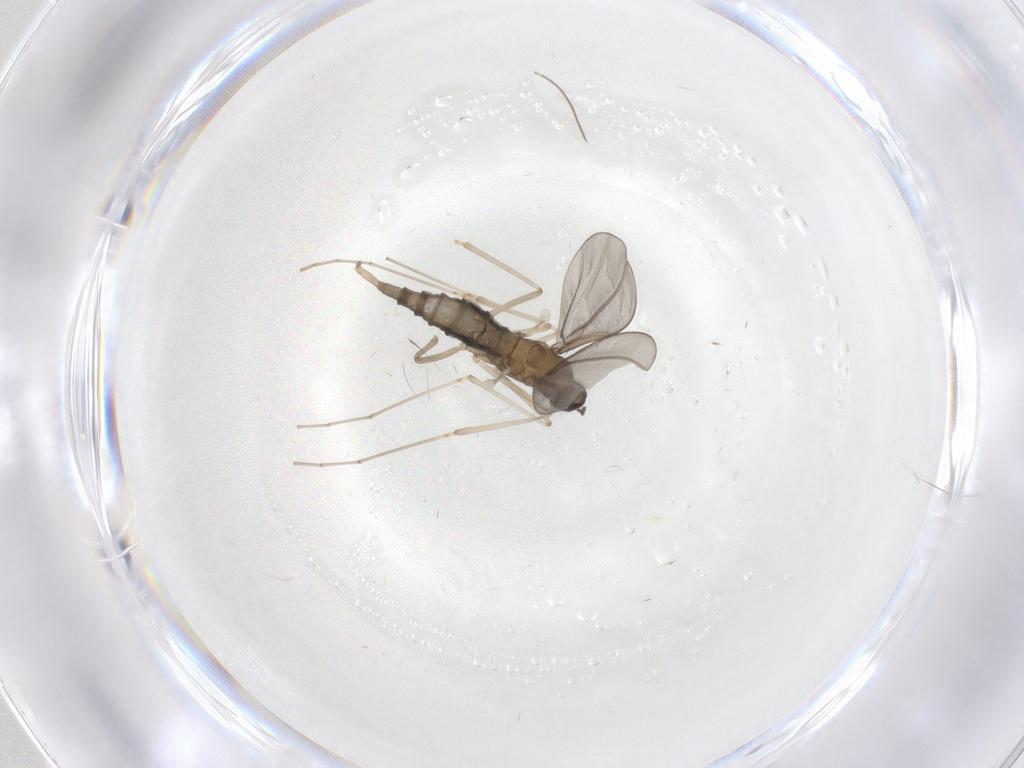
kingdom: Animalia
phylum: Arthropoda
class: Insecta
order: Diptera
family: Cecidomyiidae
